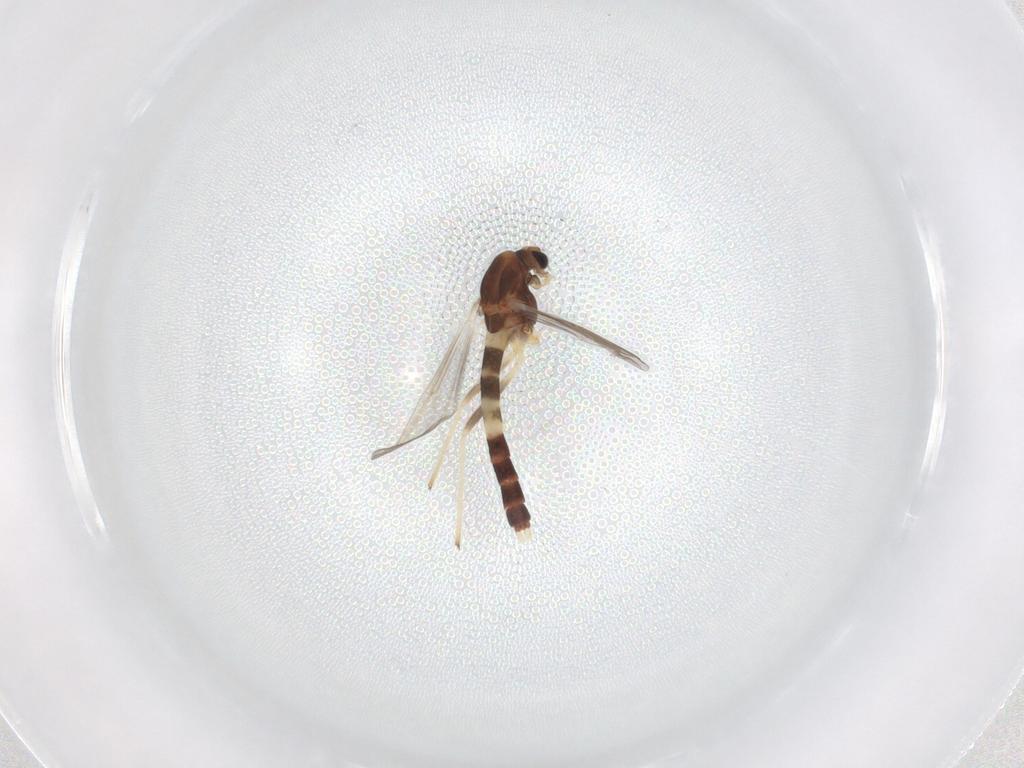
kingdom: Animalia
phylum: Arthropoda
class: Insecta
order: Diptera
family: Chironomidae
